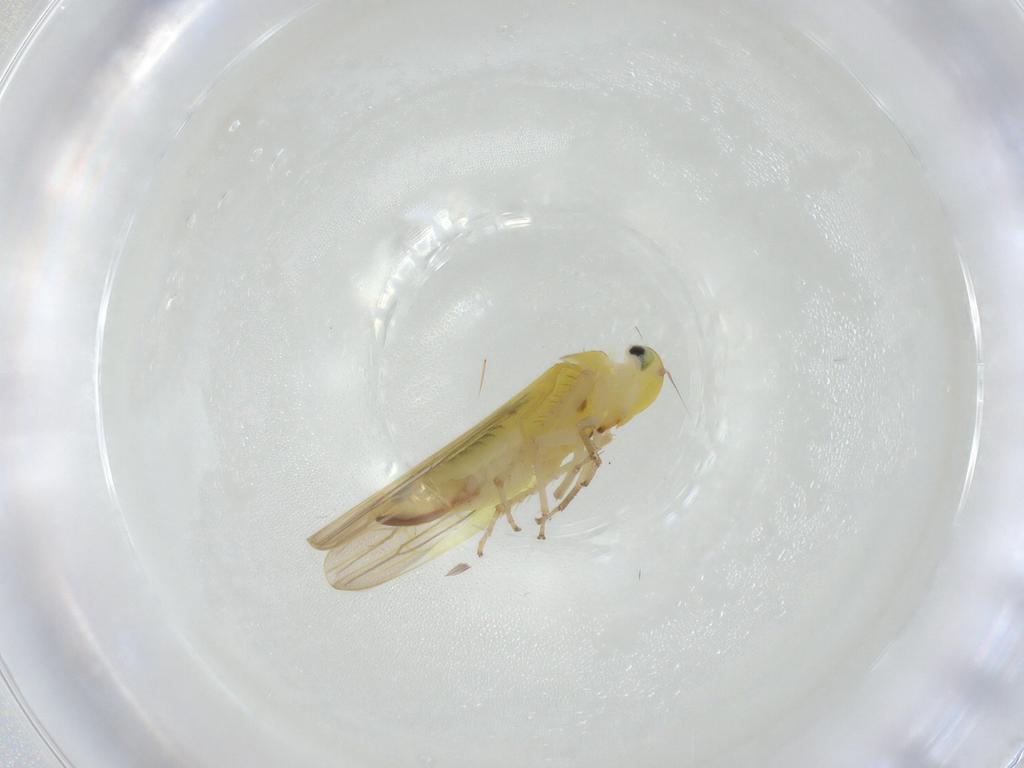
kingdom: Animalia
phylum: Arthropoda
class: Insecta
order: Hemiptera
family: Cicadellidae
